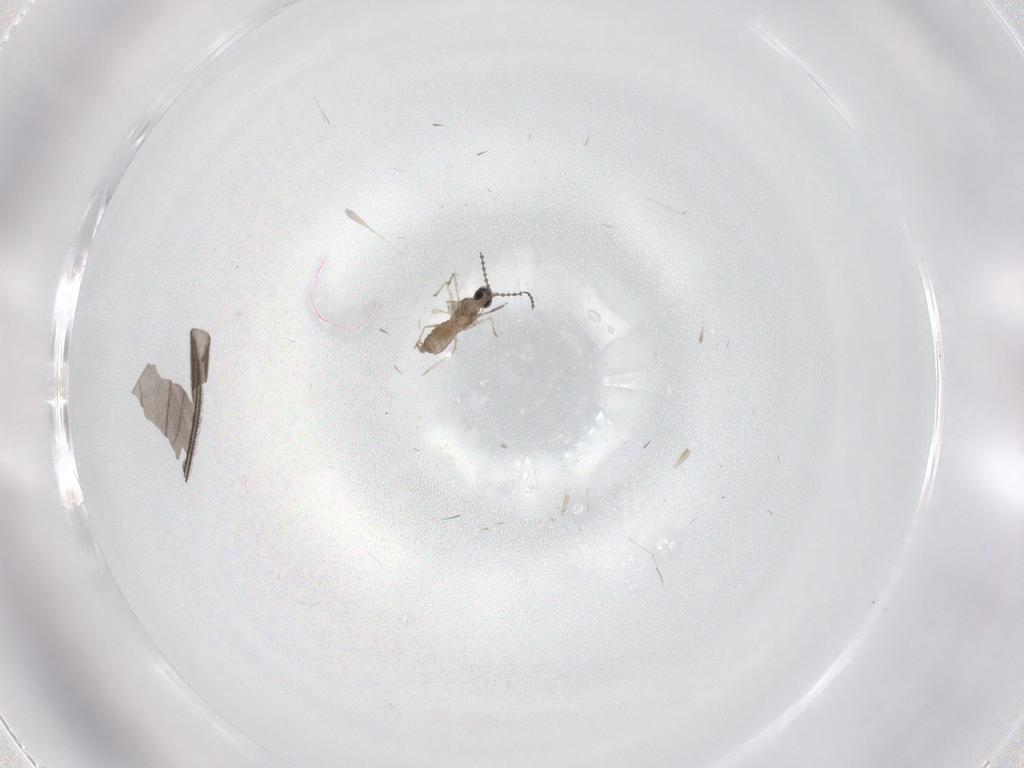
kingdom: Animalia
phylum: Arthropoda
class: Insecta
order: Diptera
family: Cecidomyiidae
